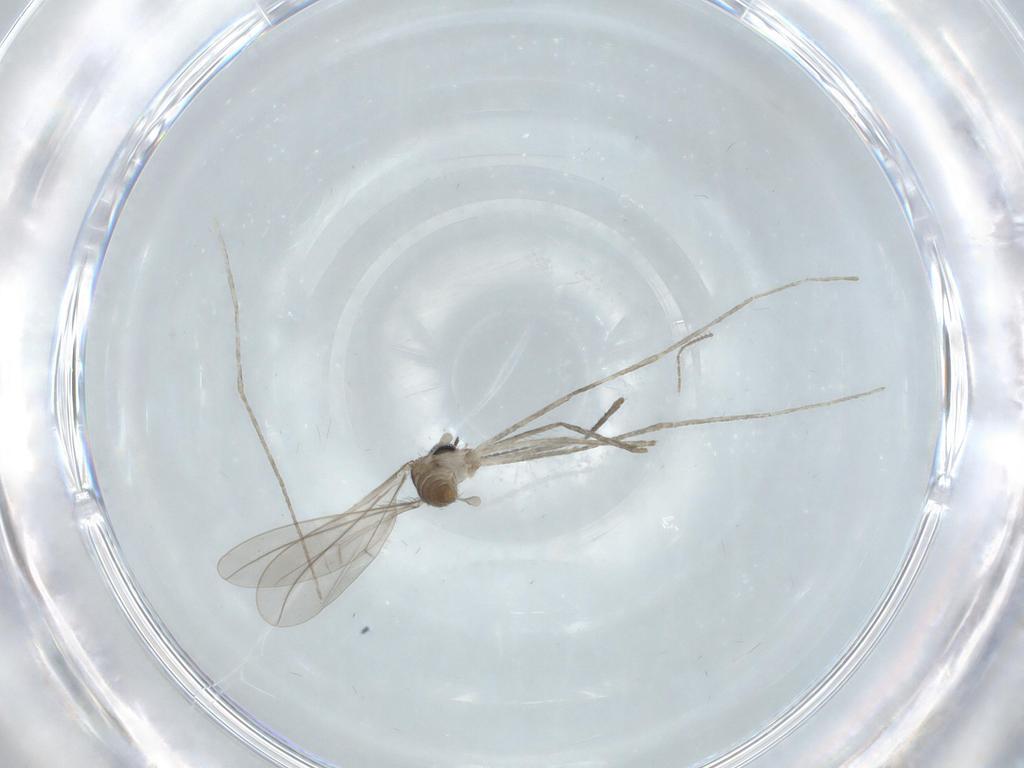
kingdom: Animalia
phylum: Arthropoda
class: Insecta
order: Diptera
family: Cecidomyiidae
